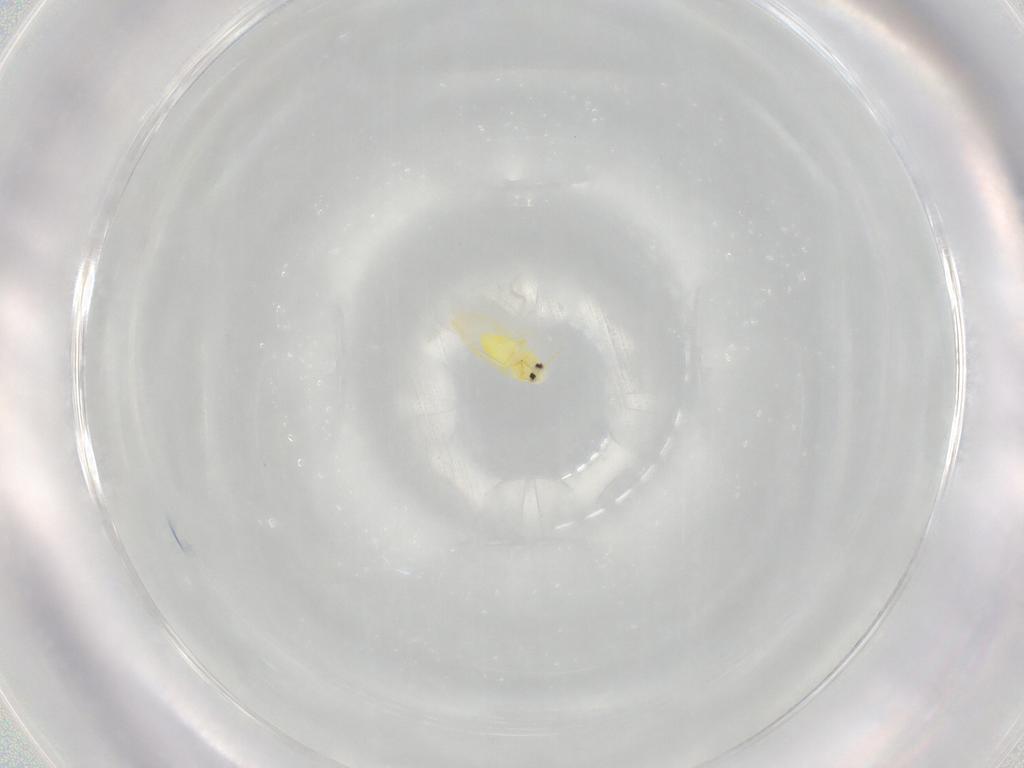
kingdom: Animalia
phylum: Arthropoda
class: Insecta
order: Hemiptera
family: Aleyrodidae
